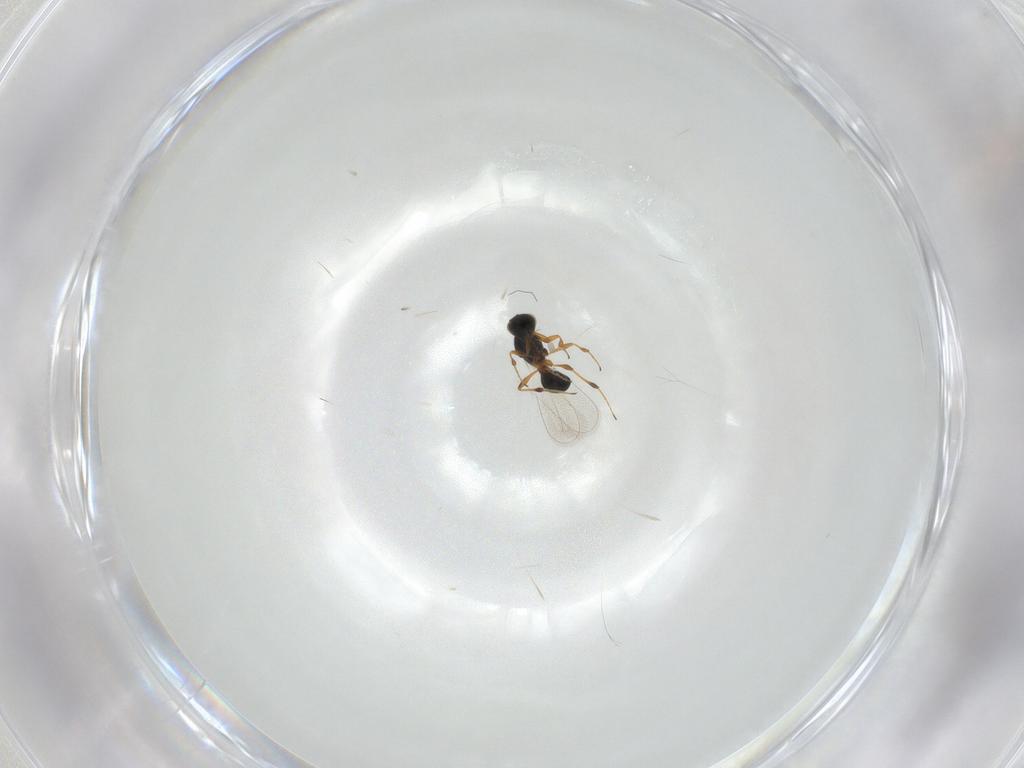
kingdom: Animalia
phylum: Arthropoda
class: Insecta
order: Hymenoptera
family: Platygastridae
